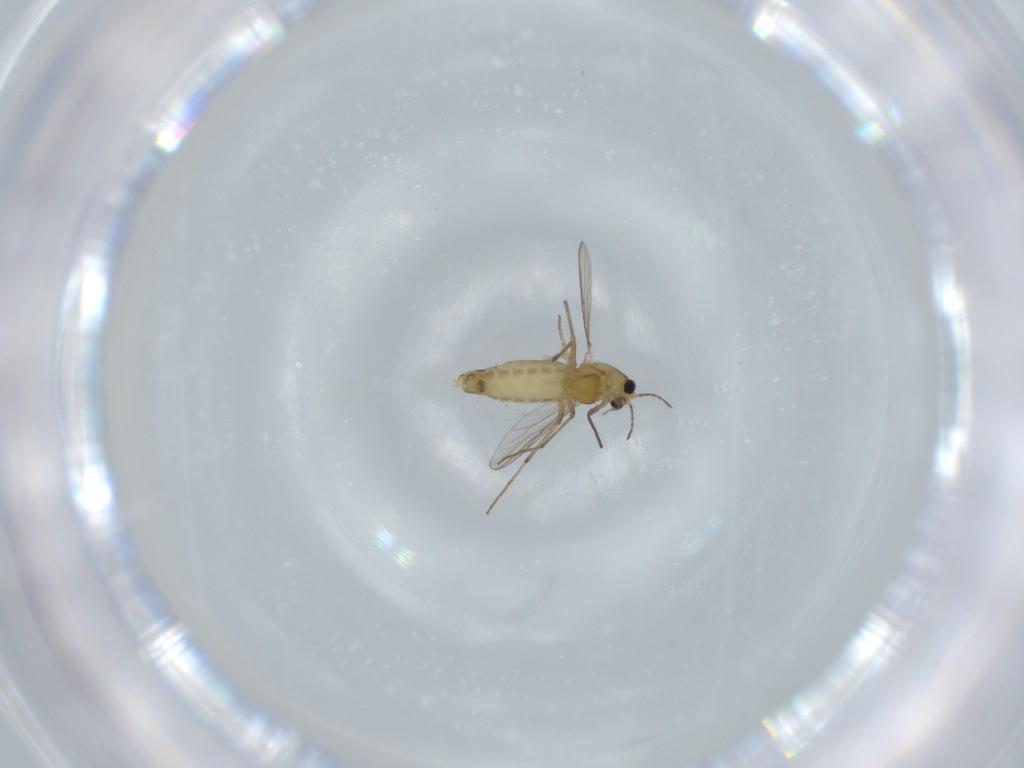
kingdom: Animalia
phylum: Arthropoda
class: Insecta
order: Diptera
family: Chironomidae
